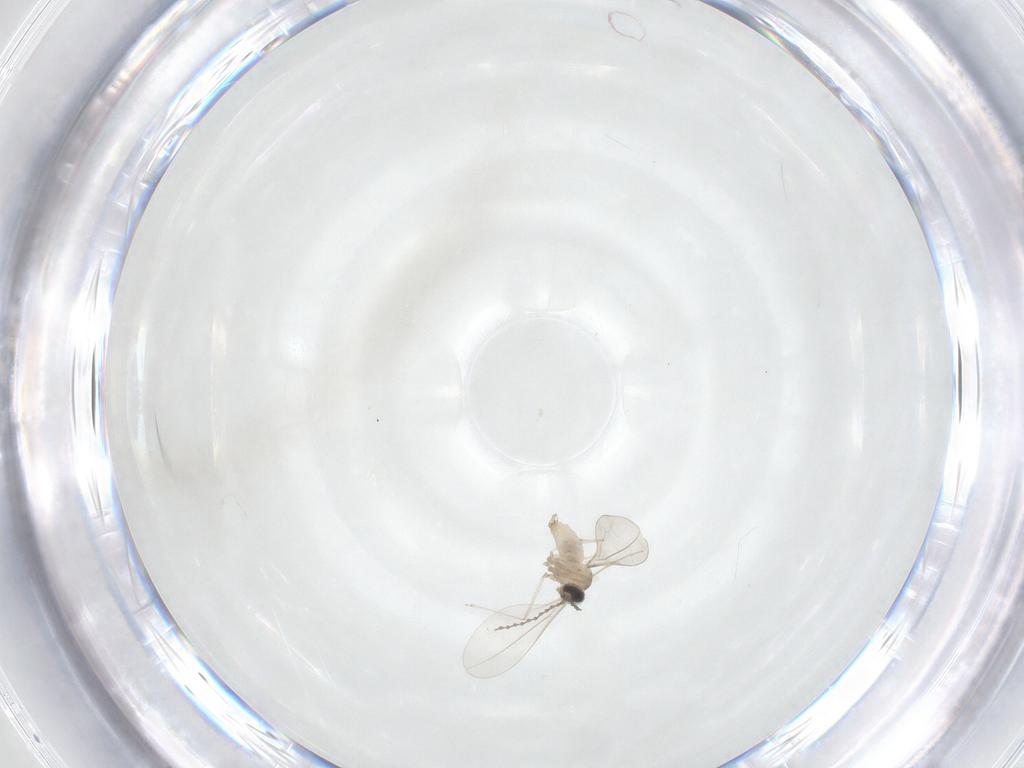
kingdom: Animalia
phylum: Arthropoda
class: Insecta
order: Diptera
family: Cecidomyiidae
